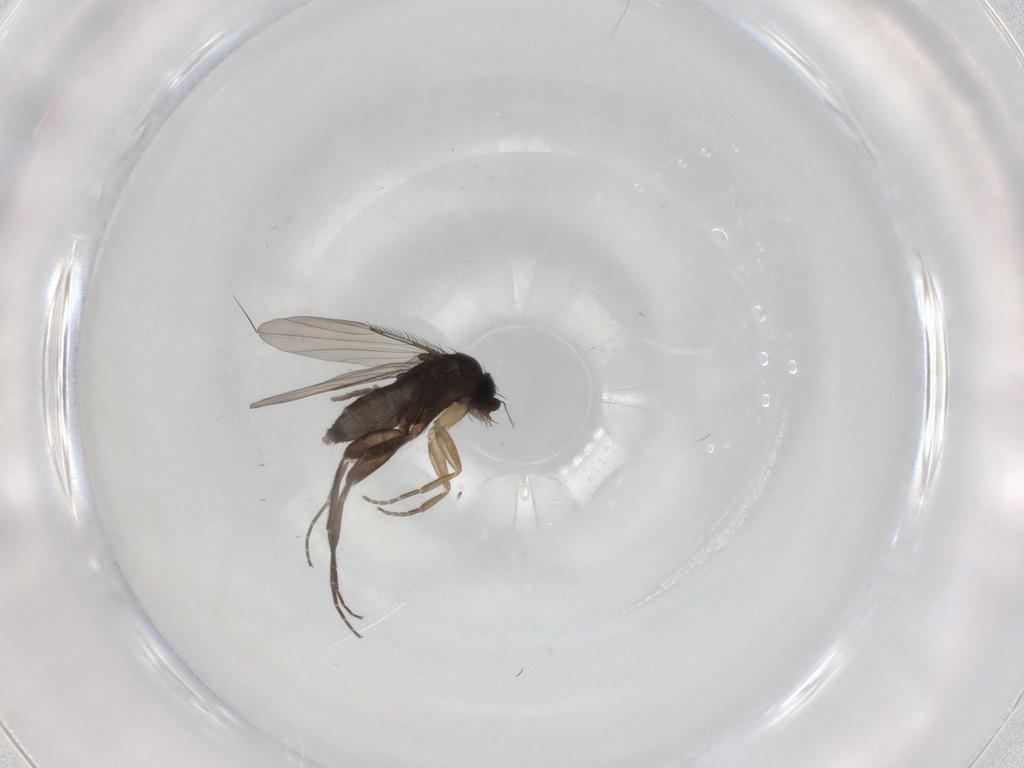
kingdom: Animalia
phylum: Arthropoda
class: Insecta
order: Diptera
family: Phoridae
